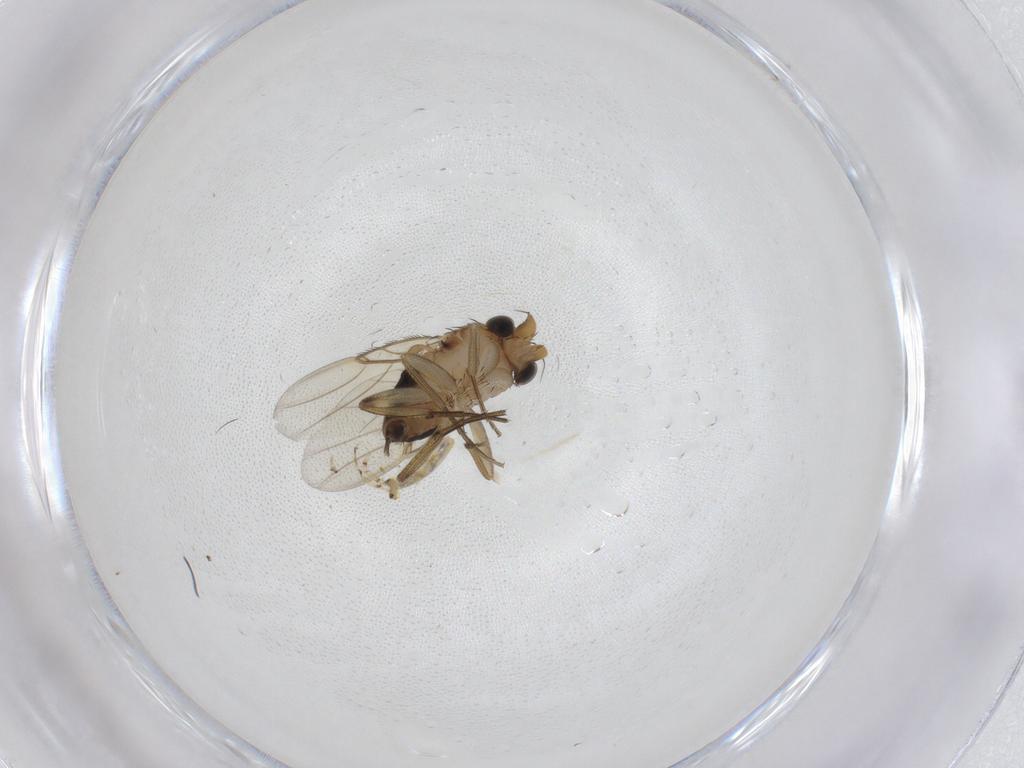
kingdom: Animalia
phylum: Arthropoda
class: Insecta
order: Diptera
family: Phoridae
